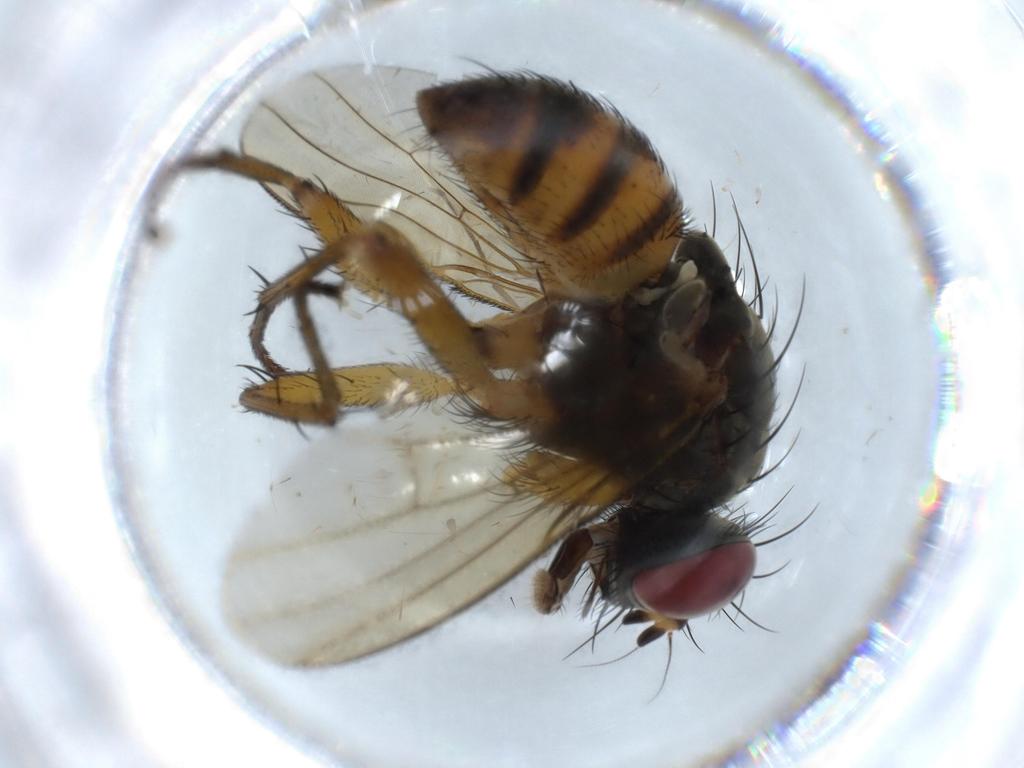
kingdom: Animalia
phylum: Arthropoda
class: Insecta
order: Diptera
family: Muscidae
